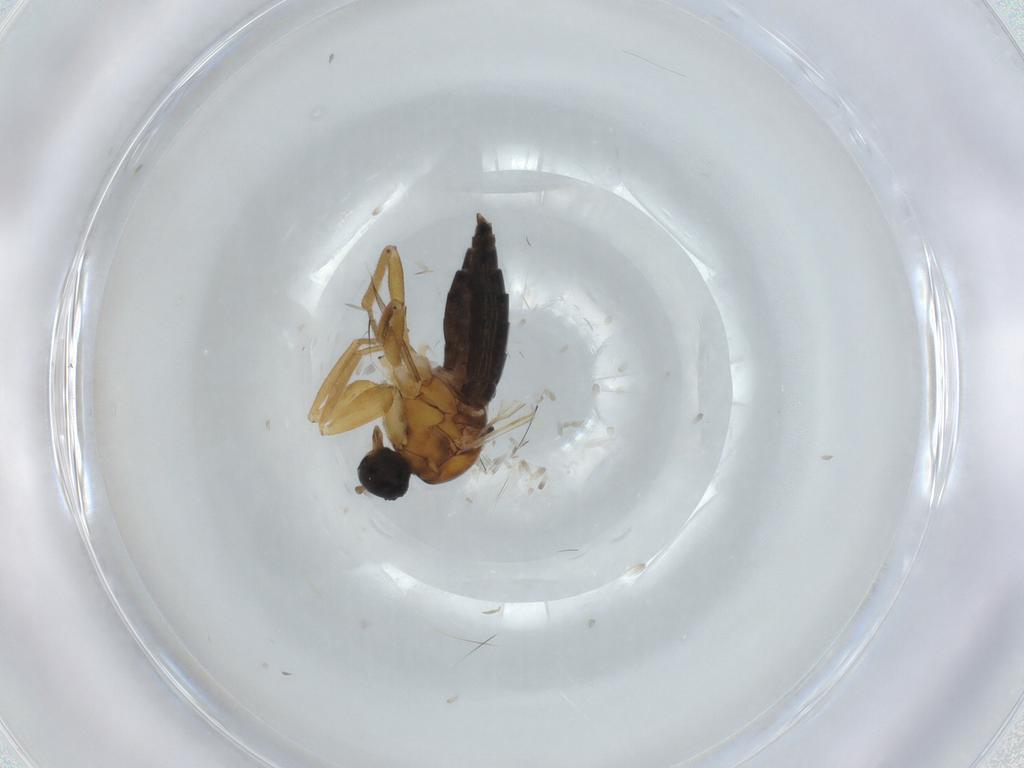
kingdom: Animalia
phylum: Arthropoda
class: Insecta
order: Diptera
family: Hybotidae
